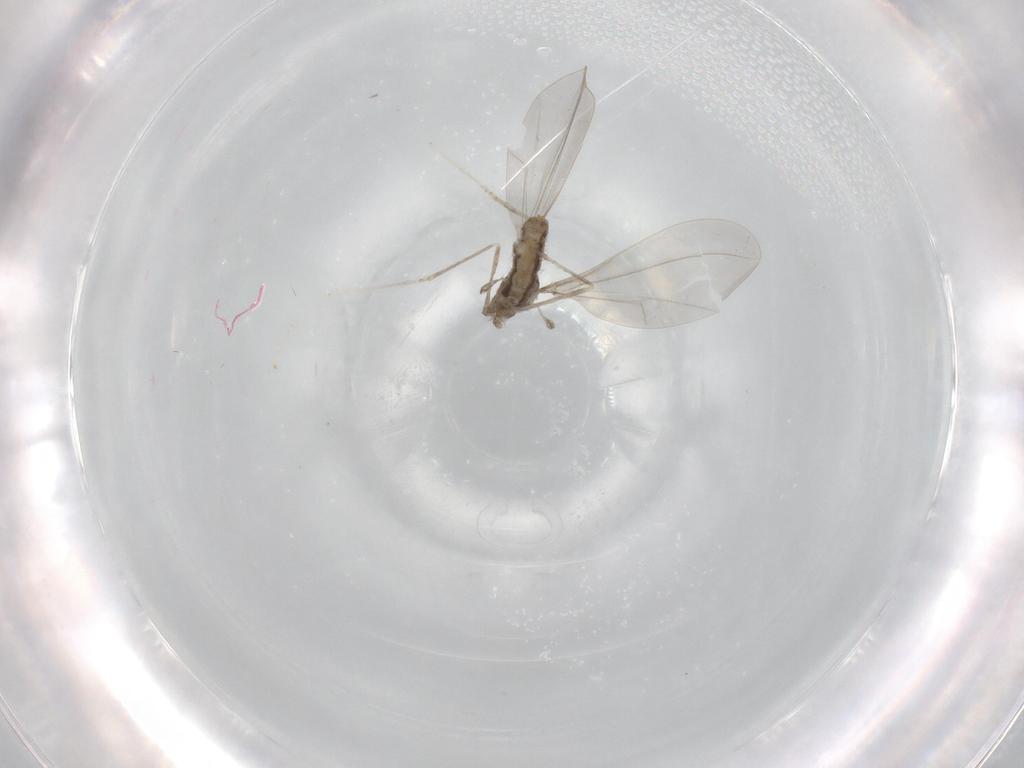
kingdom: Animalia
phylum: Arthropoda
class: Insecta
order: Diptera
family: Cecidomyiidae
